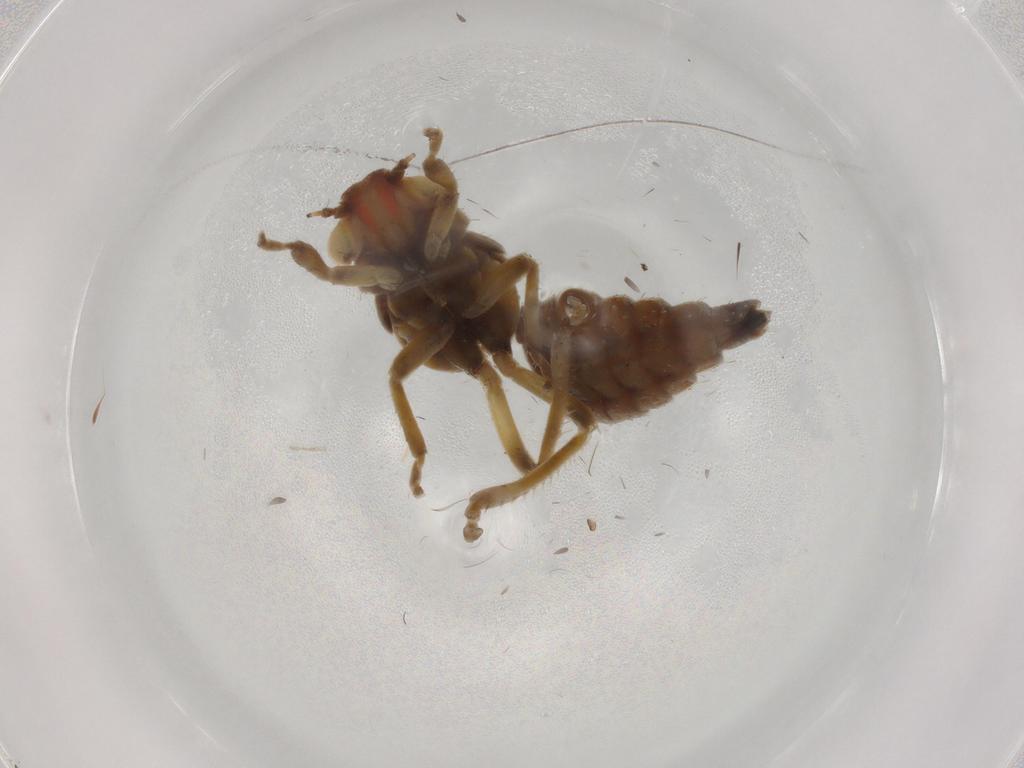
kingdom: Animalia
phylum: Arthropoda
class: Insecta
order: Hemiptera
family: Cicadellidae
